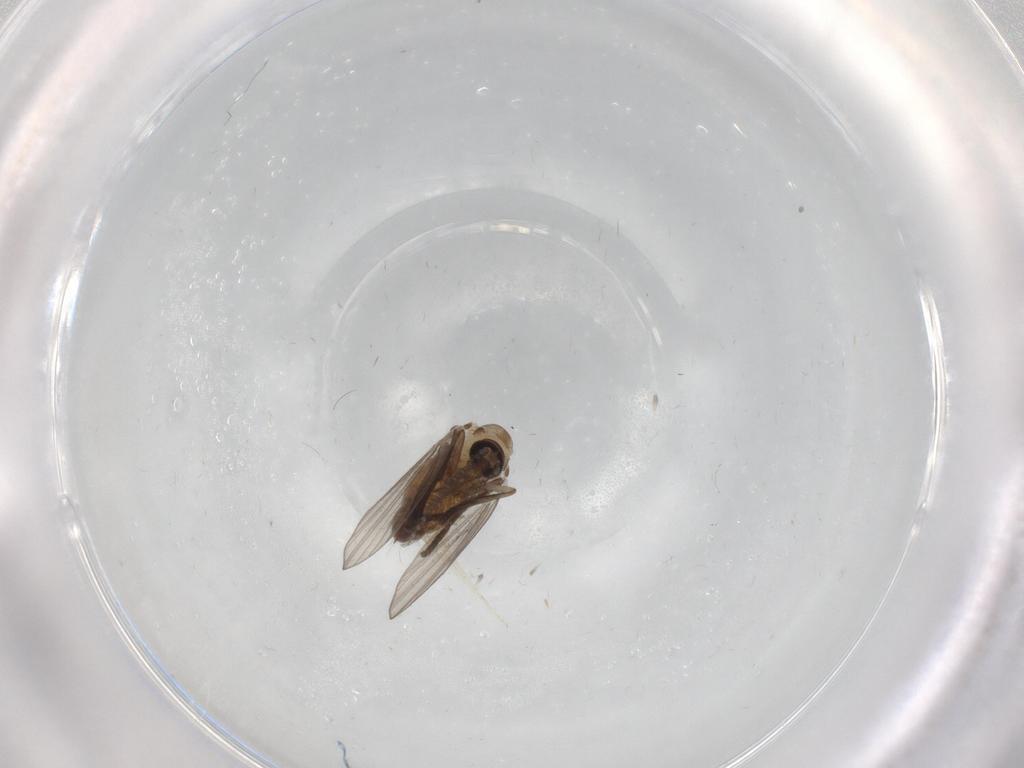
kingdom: Animalia
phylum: Arthropoda
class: Insecta
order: Diptera
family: Psychodidae
